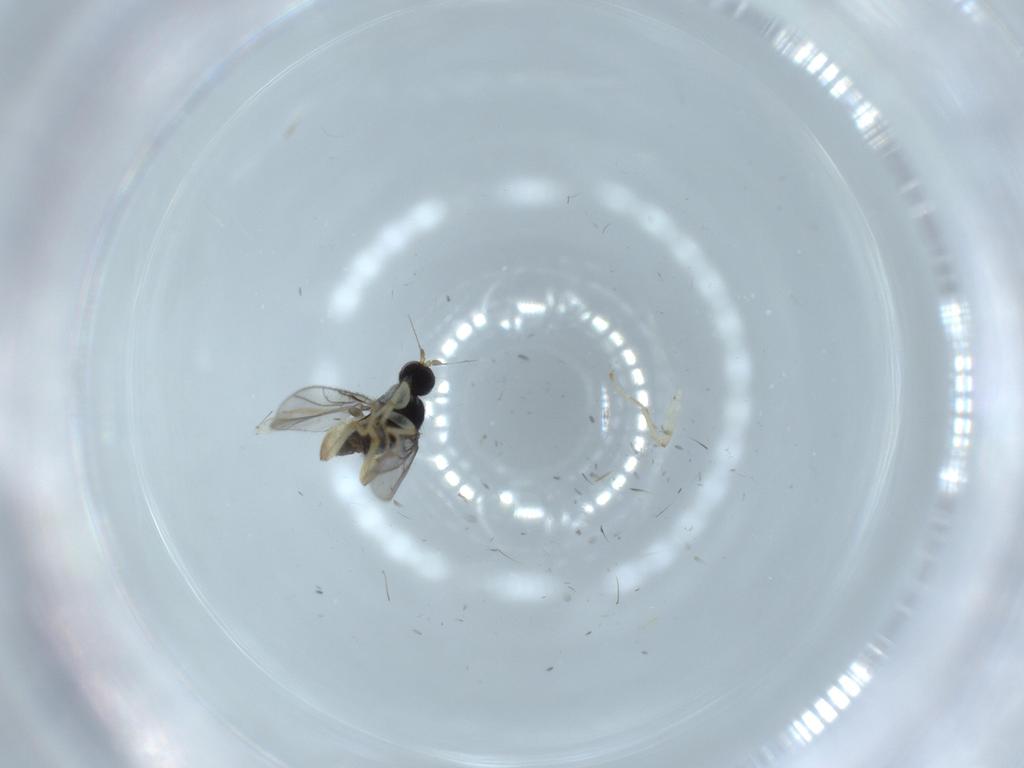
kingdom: Animalia
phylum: Arthropoda
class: Insecta
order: Diptera
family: Hybotidae
